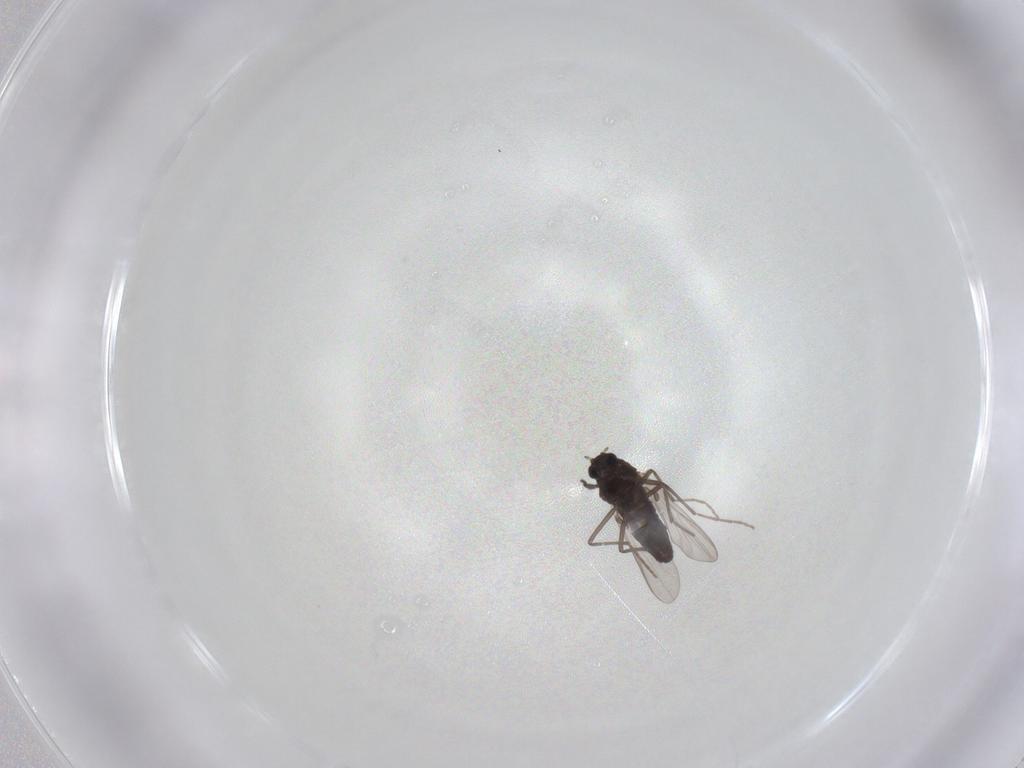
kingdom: Animalia
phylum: Arthropoda
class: Insecta
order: Diptera
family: Chironomidae
